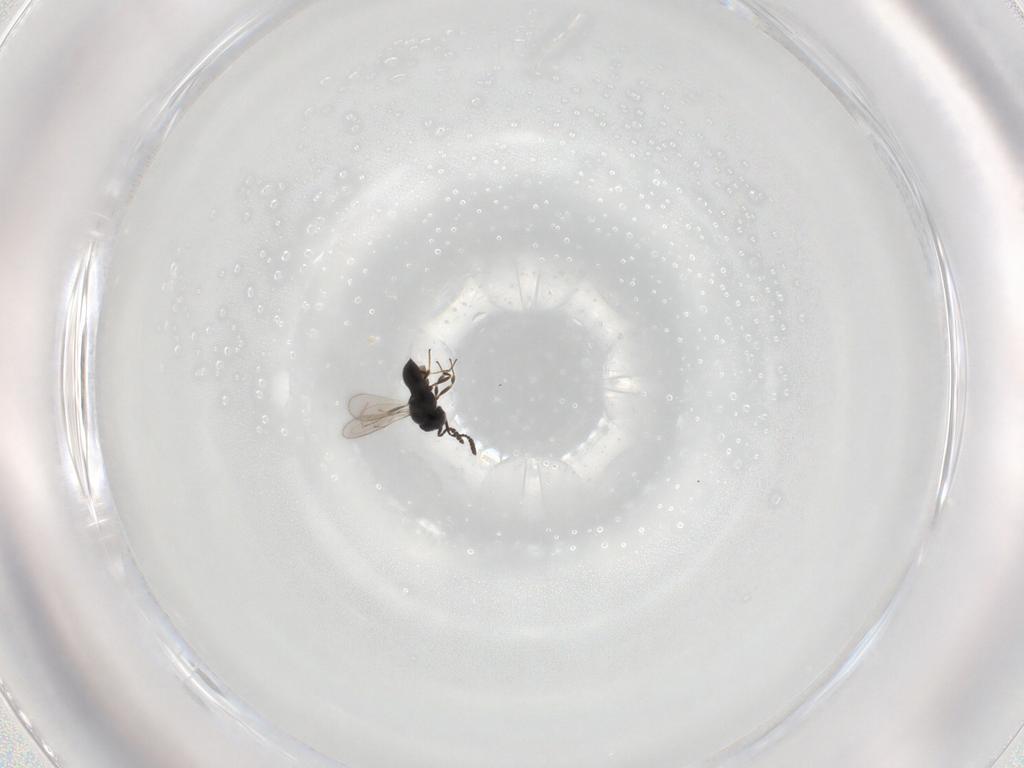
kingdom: Animalia
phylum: Arthropoda
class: Insecta
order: Hymenoptera
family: Scelionidae
